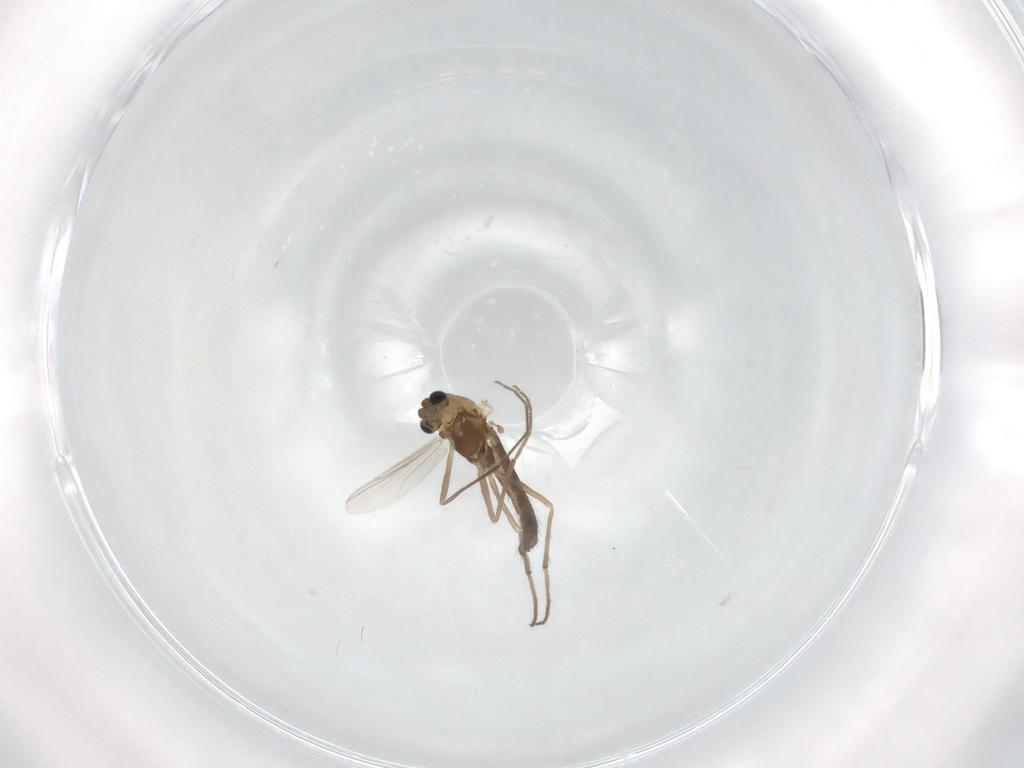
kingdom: Animalia
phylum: Arthropoda
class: Insecta
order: Diptera
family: Chironomidae
